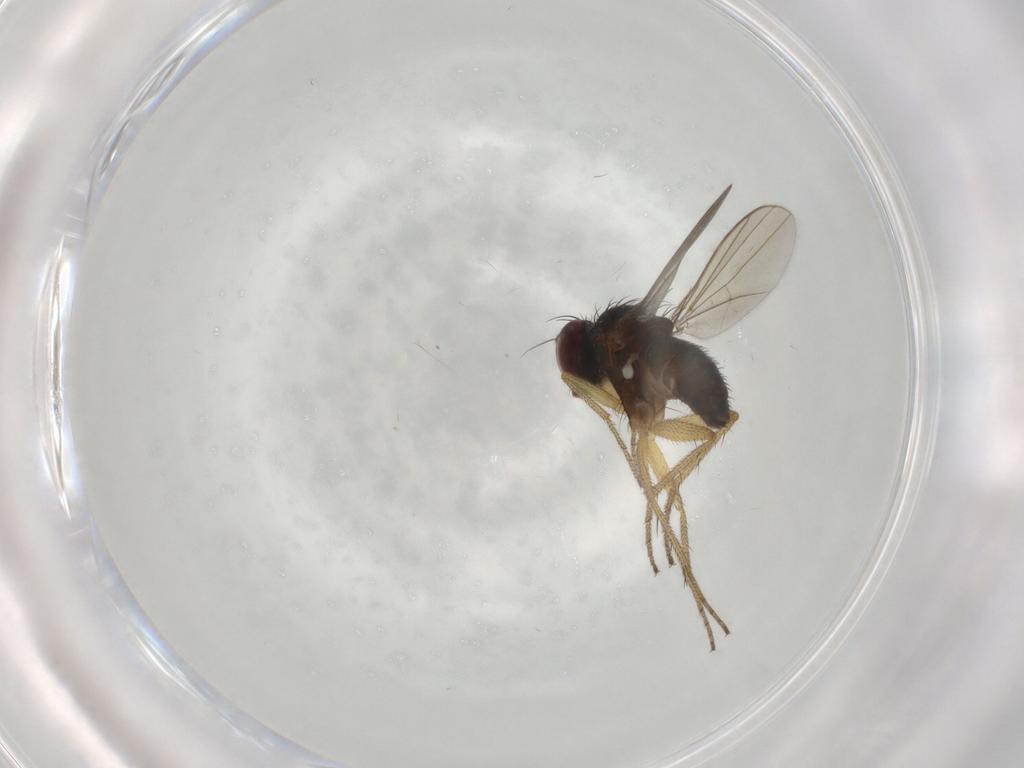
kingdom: Animalia
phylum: Arthropoda
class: Insecta
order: Diptera
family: Dolichopodidae
